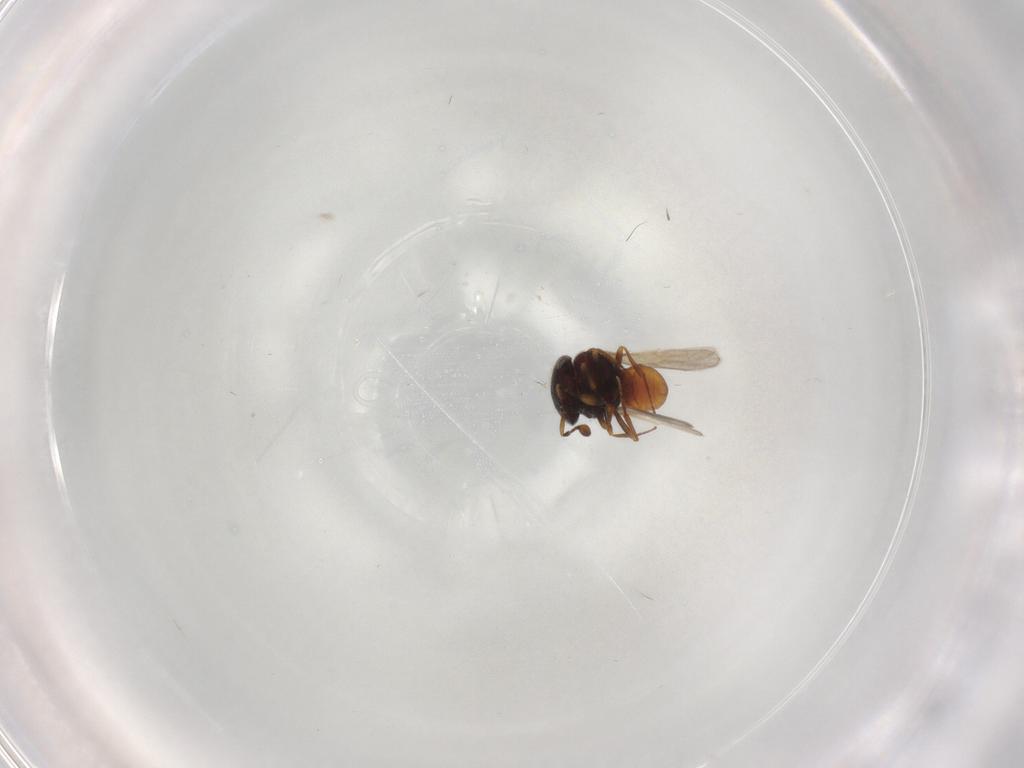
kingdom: Animalia
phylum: Arthropoda
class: Insecta
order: Hymenoptera
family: Scelionidae
